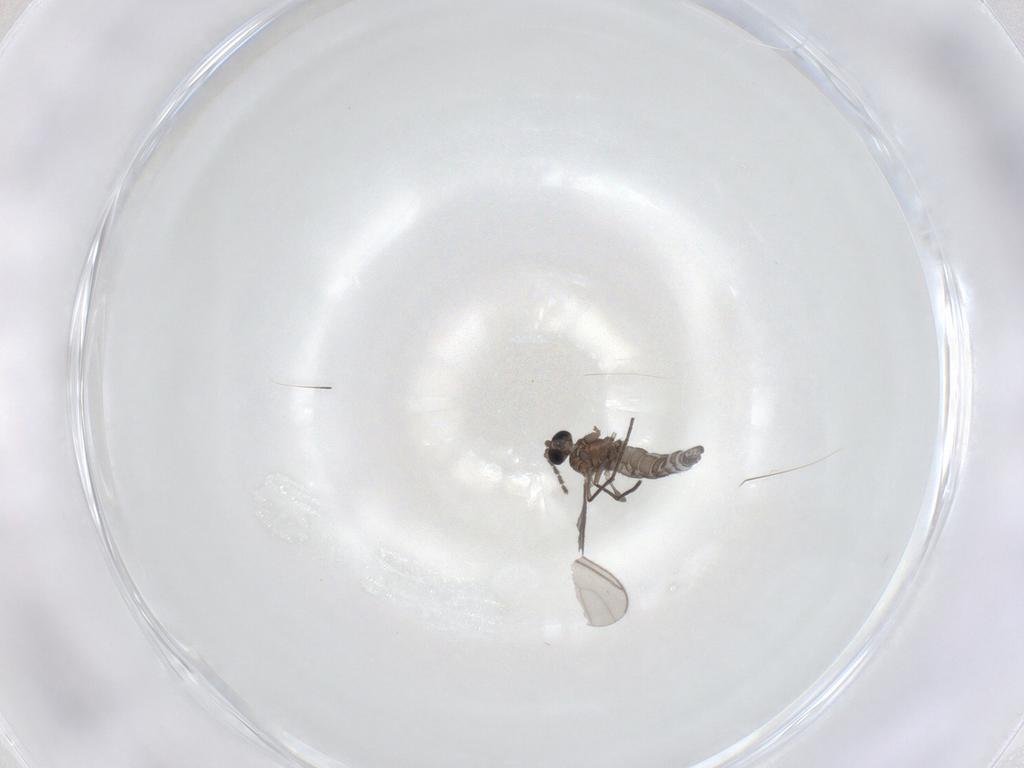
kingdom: Animalia
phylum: Arthropoda
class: Insecta
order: Diptera
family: Sciaridae
